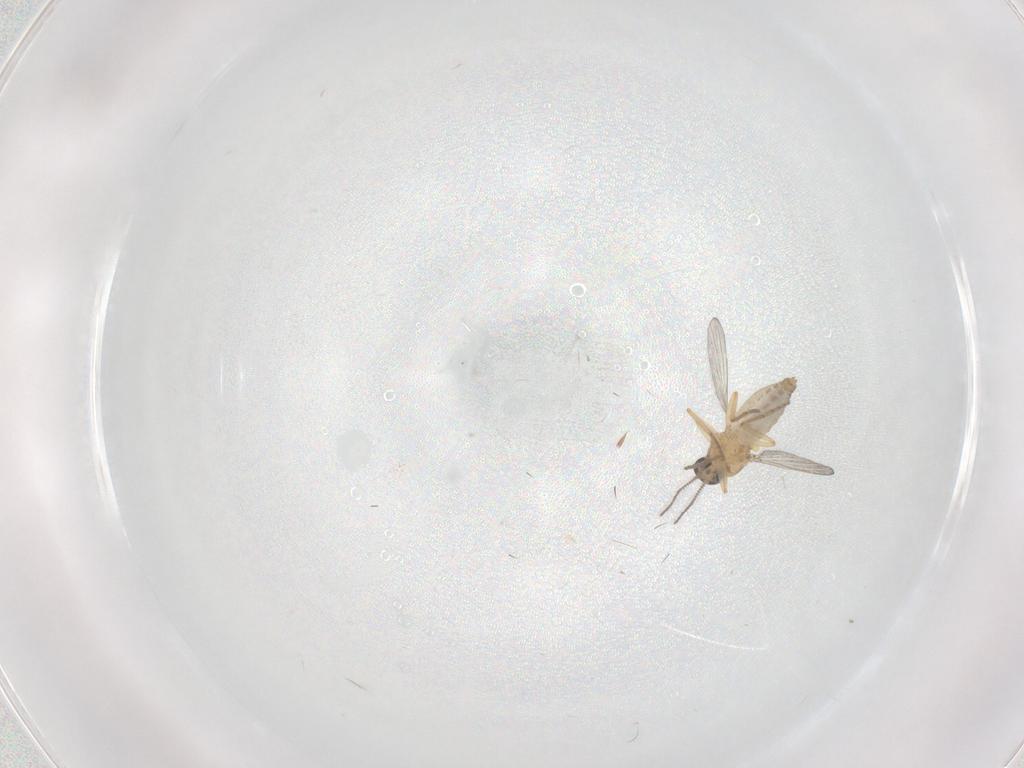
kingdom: Animalia
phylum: Arthropoda
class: Insecta
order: Diptera
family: Ceratopogonidae
